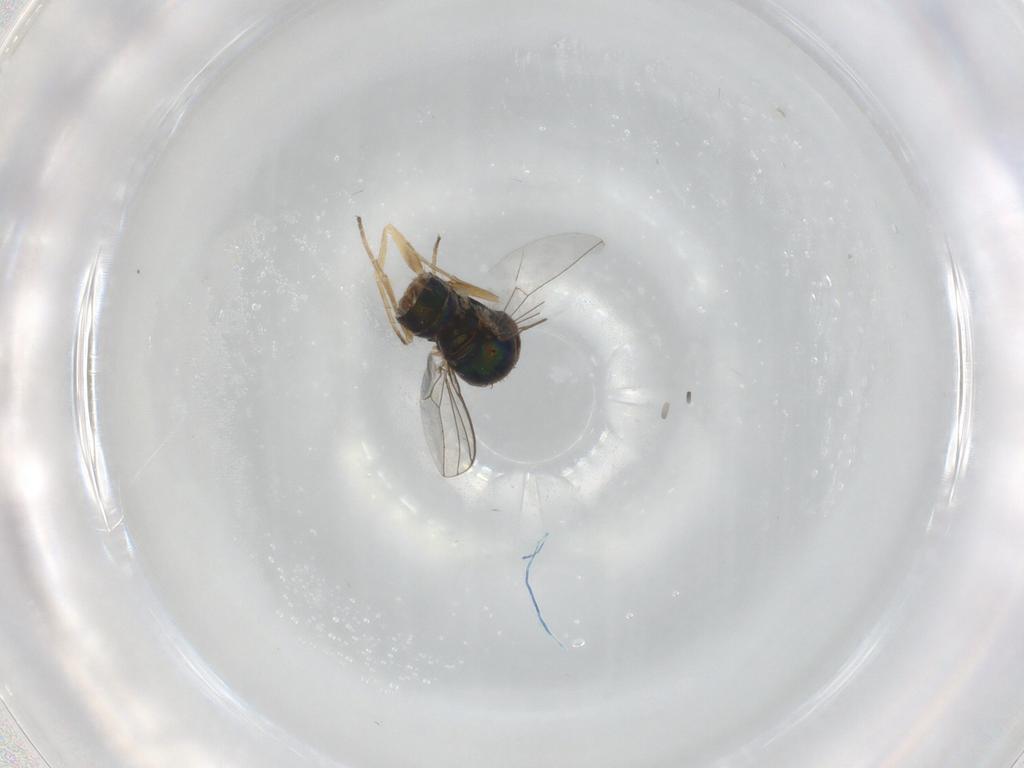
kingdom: Animalia
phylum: Arthropoda
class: Insecta
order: Diptera
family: Dolichopodidae
